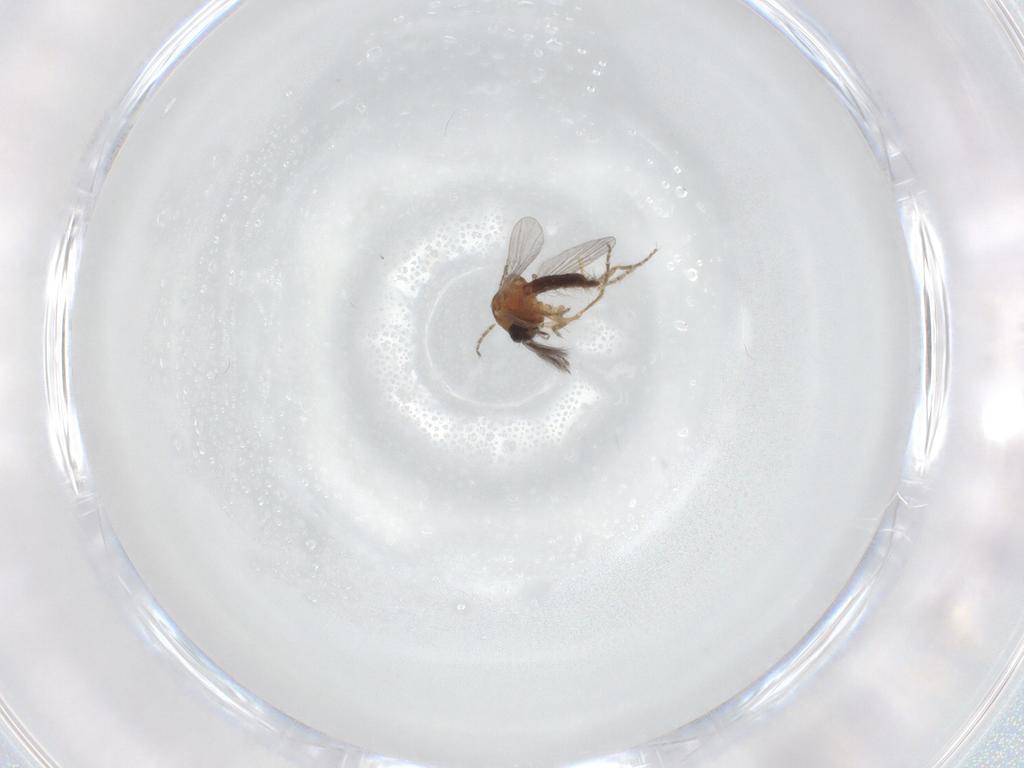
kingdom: Animalia
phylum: Arthropoda
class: Insecta
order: Diptera
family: Ceratopogonidae
